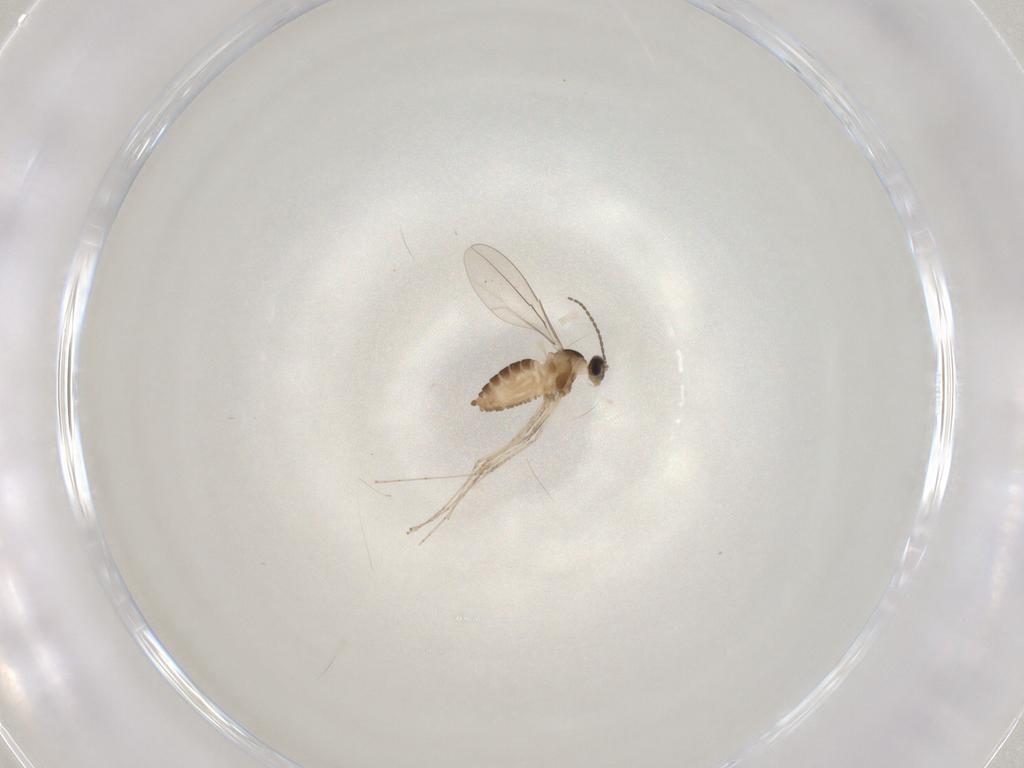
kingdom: Animalia
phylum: Arthropoda
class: Insecta
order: Diptera
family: Cecidomyiidae
